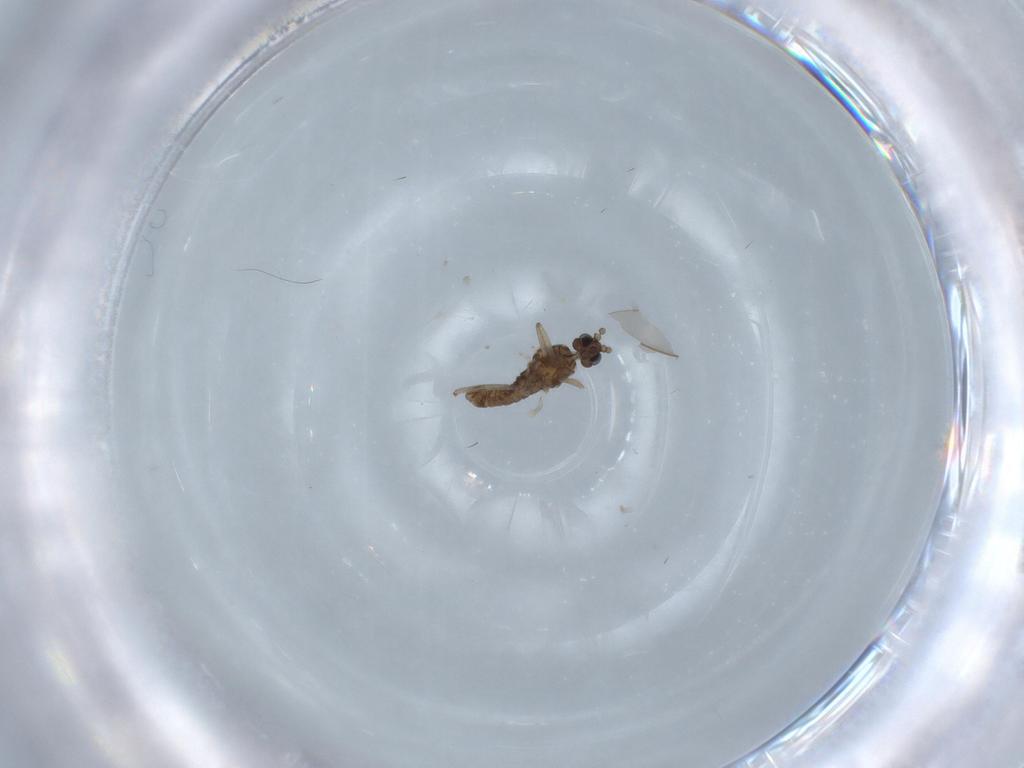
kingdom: Animalia
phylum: Arthropoda
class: Insecta
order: Diptera
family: Cecidomyiidae
